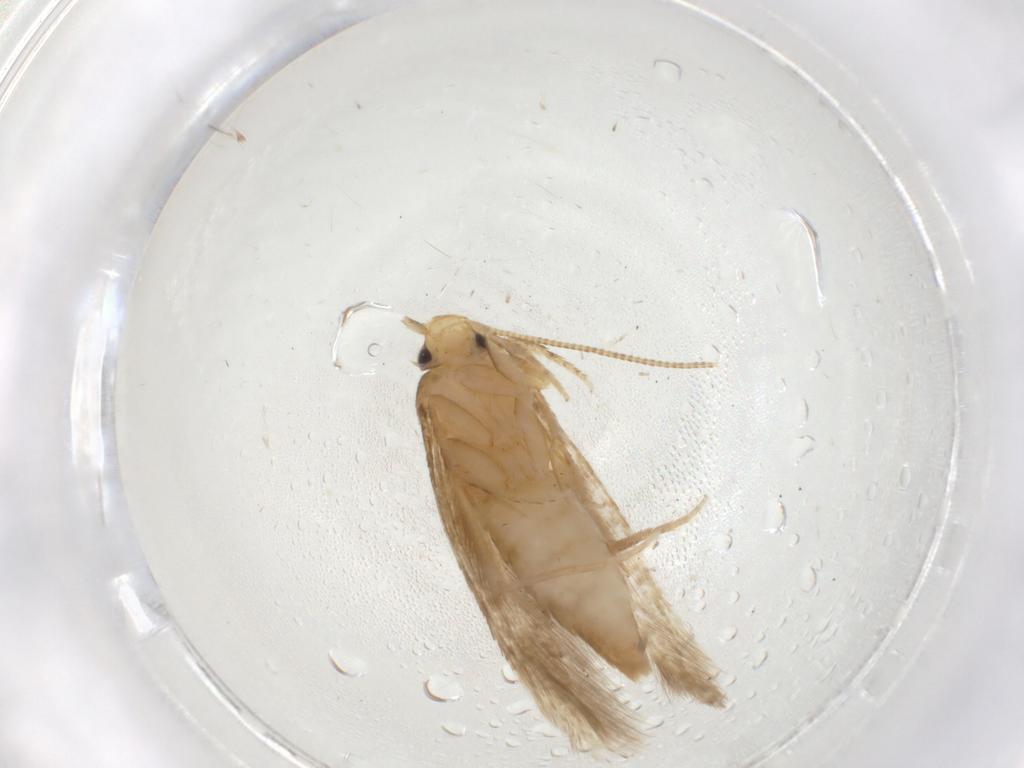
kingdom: Animalia
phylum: Arthropoda
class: Insecta
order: Lepidoptera
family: Tineidae
